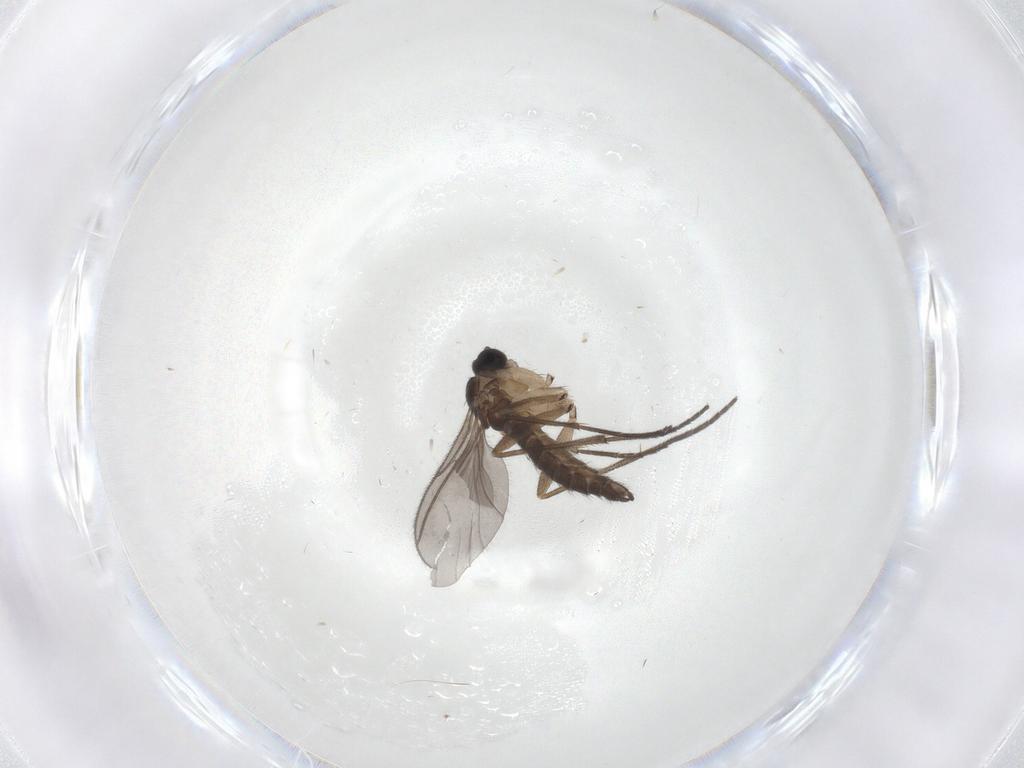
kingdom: Animalia
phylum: Arthropoda
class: Insecta
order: Diptera
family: Sciaridae
